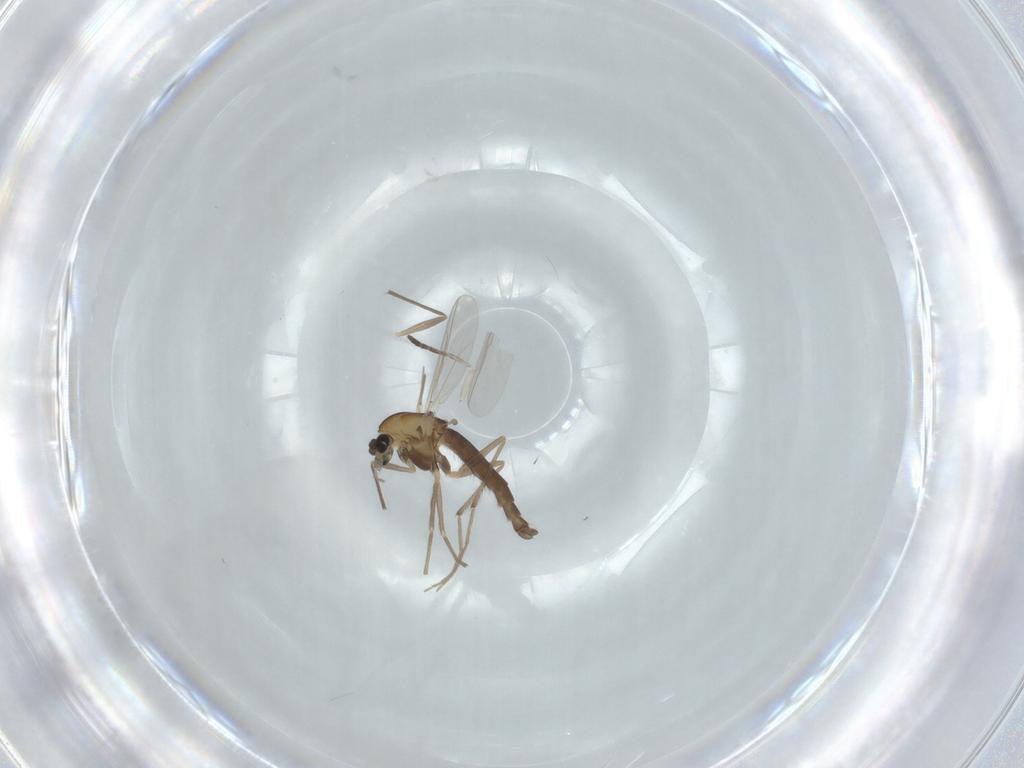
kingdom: Animalia
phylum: Arthropoda
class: Insecta
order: Diptera
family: Chironomidae
